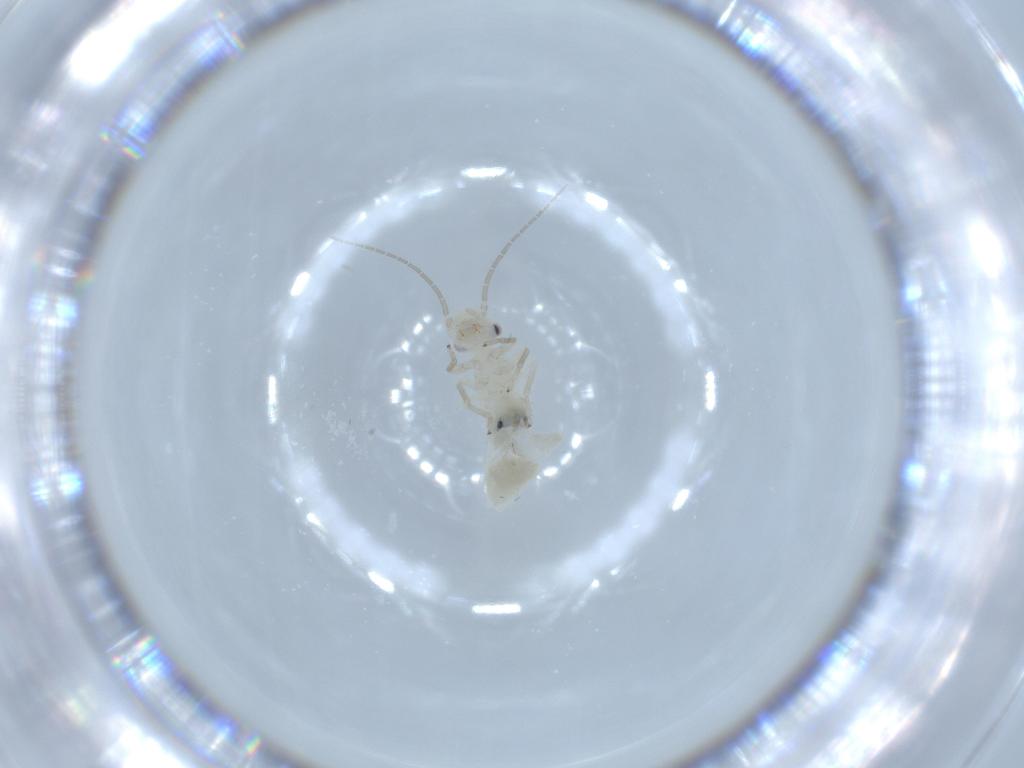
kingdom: Animalia
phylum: Arthropoda
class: Insecta
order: Psocodea
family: Caeciliusidae
